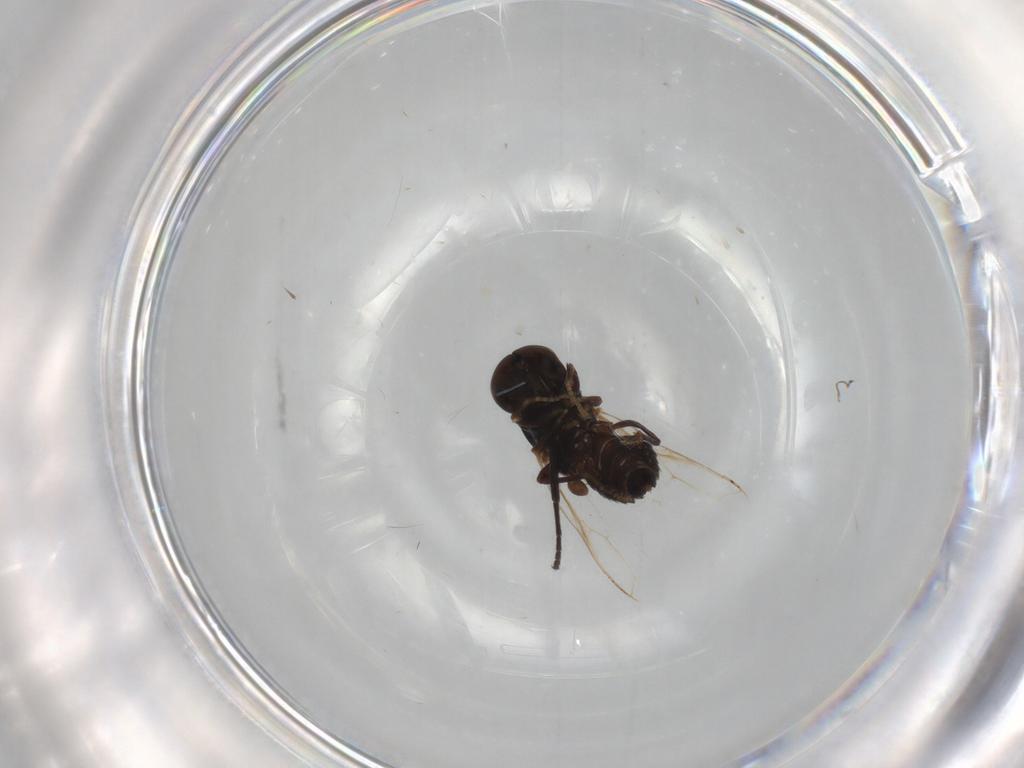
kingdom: Animalia
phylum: Arthropoda
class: Insecta
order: Diptera
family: Agromyzidae
